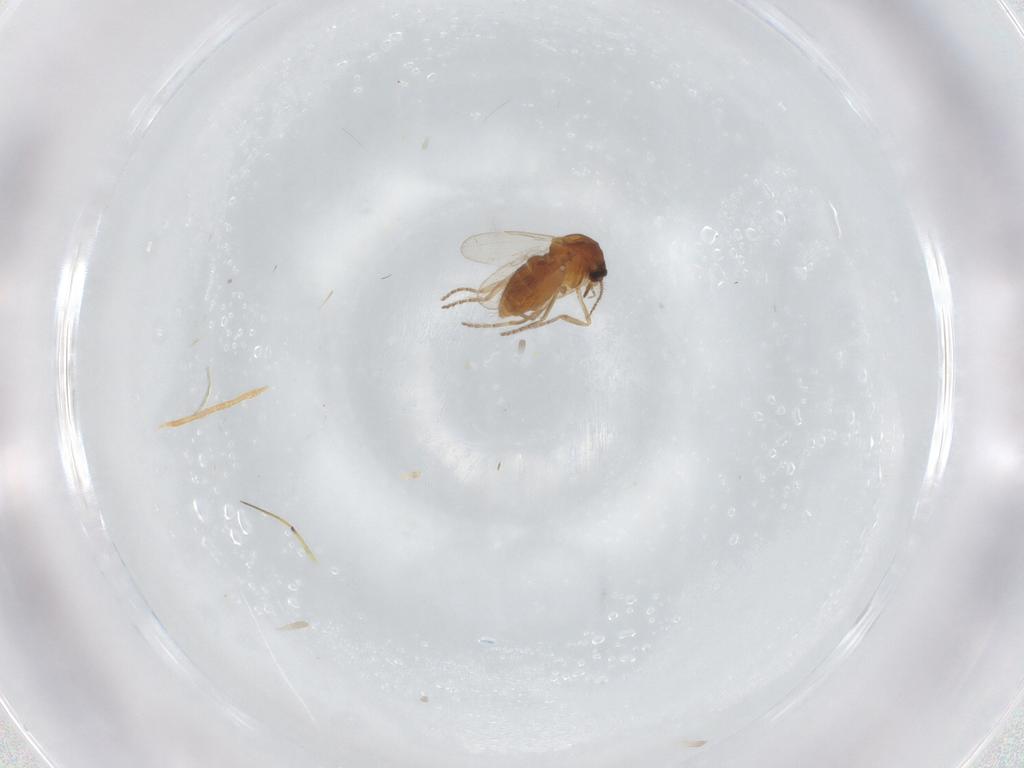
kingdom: Animalia
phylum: Arthropoda
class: Insecta
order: Diptera
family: Ceratopogonidae
